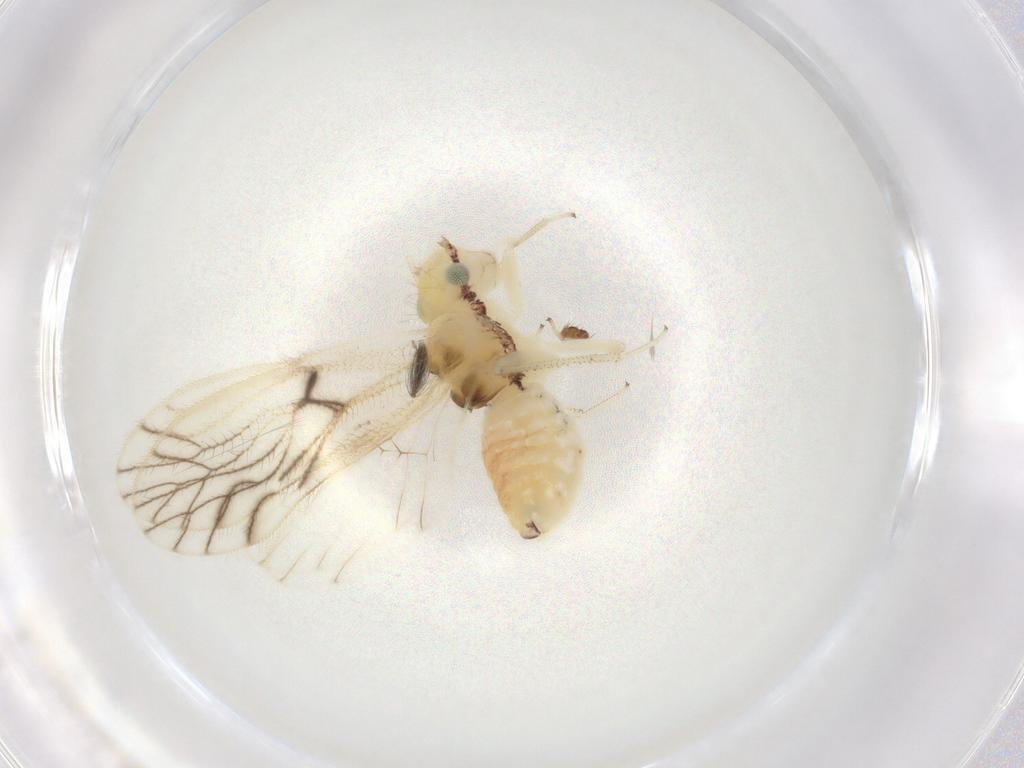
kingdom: Animalia
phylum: Arthropoda
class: Insecta
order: Psocodea
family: Philotarsidae
